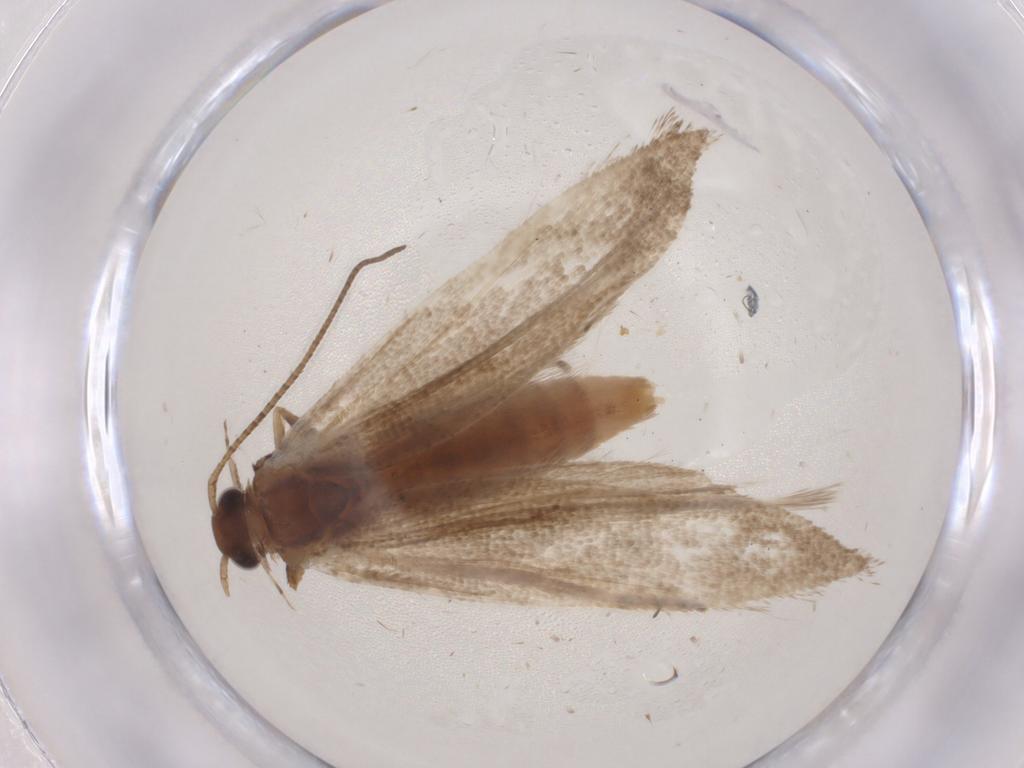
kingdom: Animalia
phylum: Arthropoda
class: Insecta
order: Lepidoptera
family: Gelechiidae
